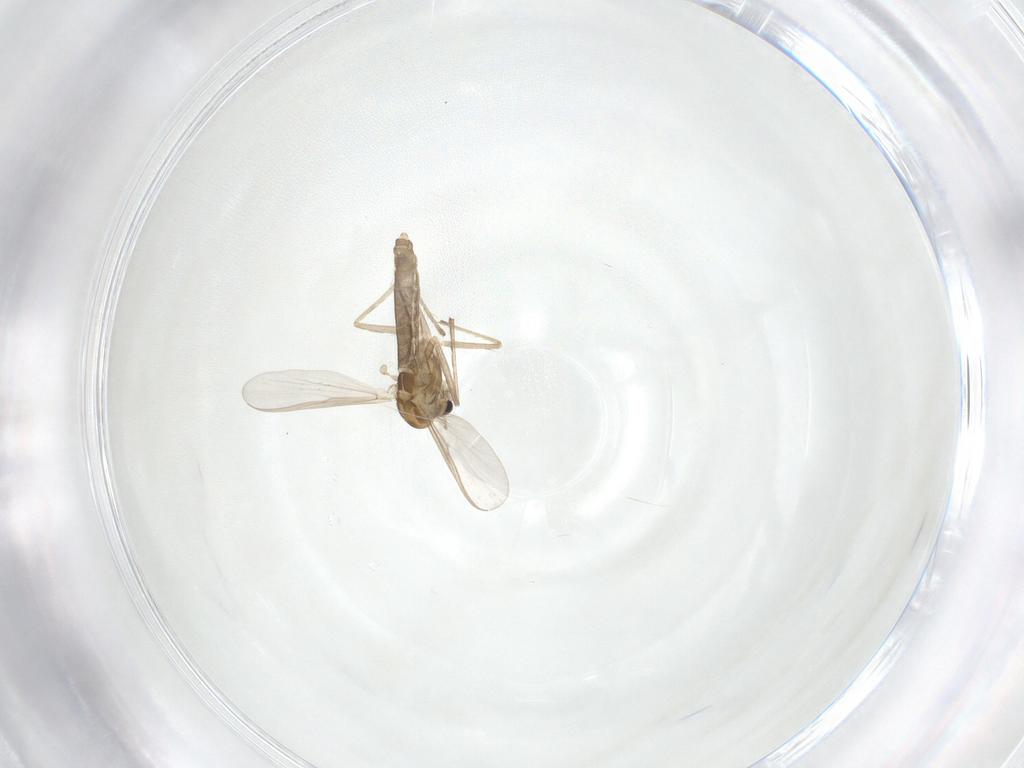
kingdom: Animalia
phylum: Arthropoda
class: Insecta
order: Diptera
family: Chironomidae
